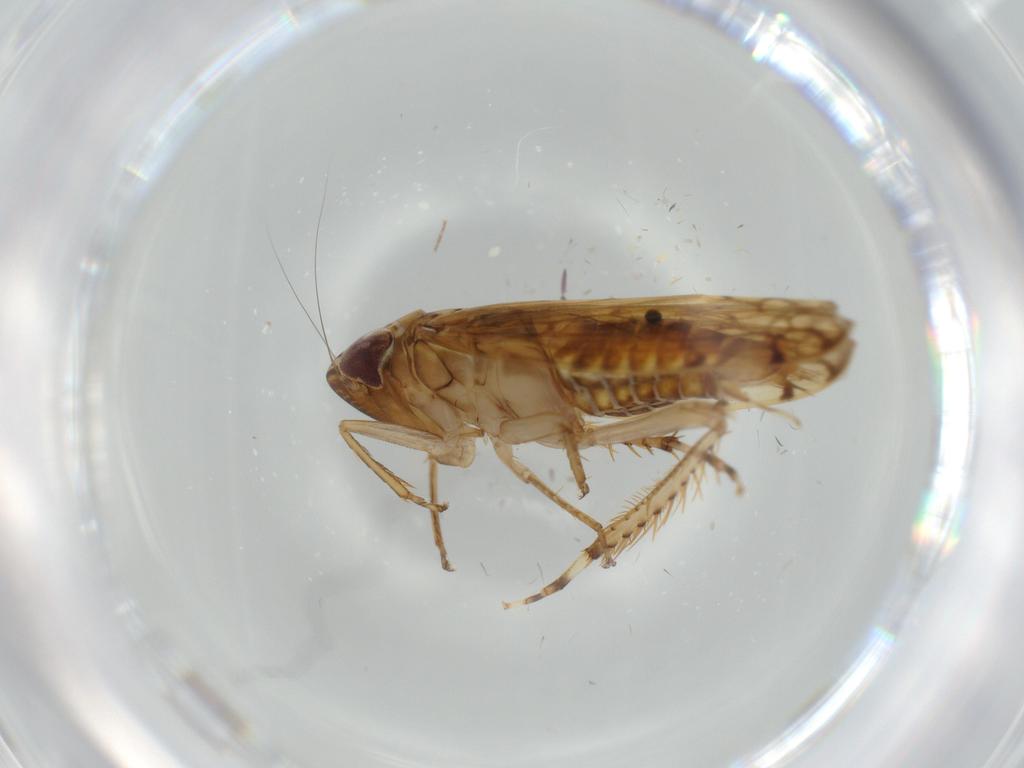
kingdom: Animalia
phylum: Arthropoda
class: Insecta
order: Hemiptera
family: Cicadellidae
